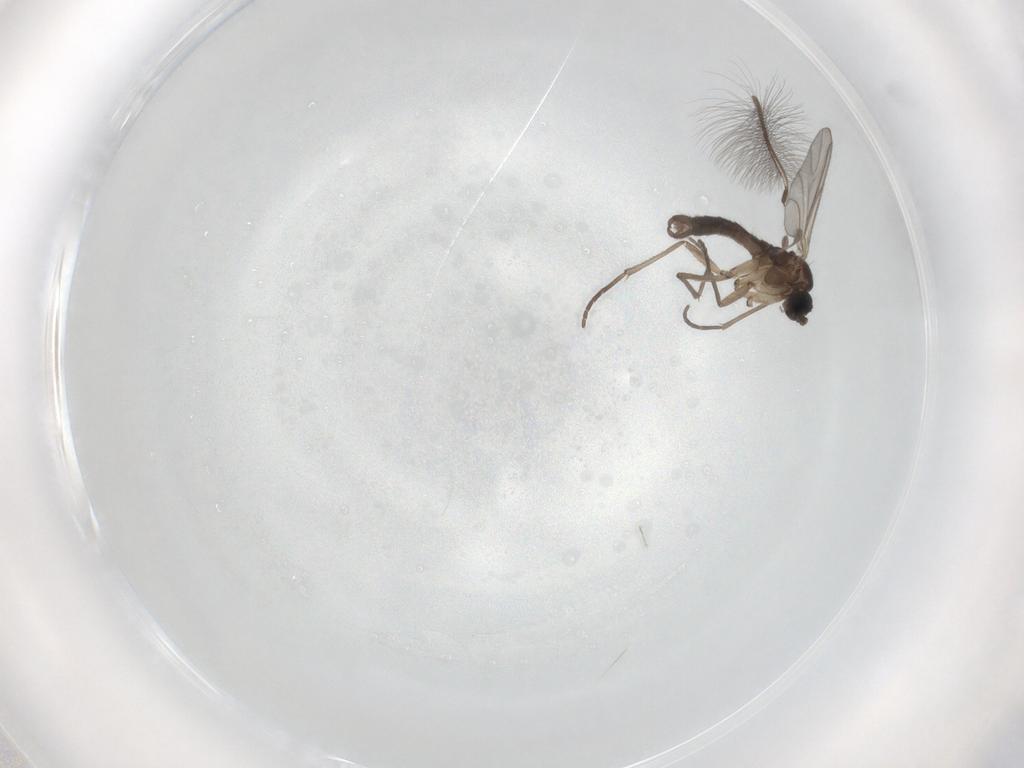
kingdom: Animalia
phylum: Arthropoda
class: Insecta
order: Diptera
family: Sciaridae
